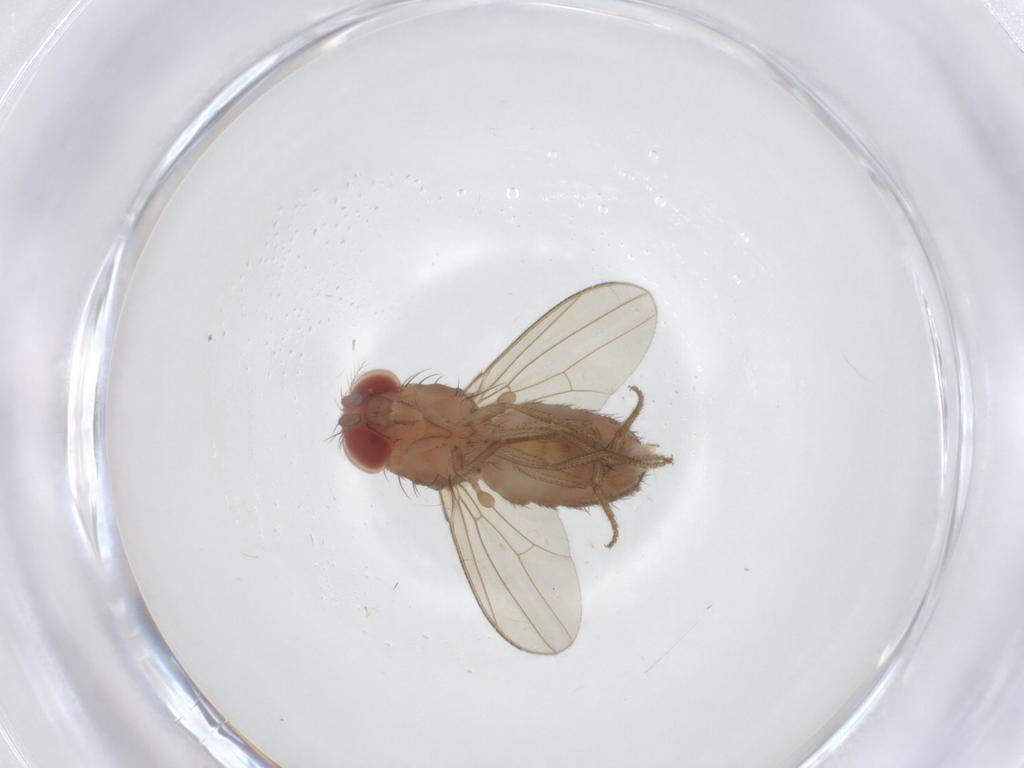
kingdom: Animalia
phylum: Arthropoda
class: Insecta
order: Diptera
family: Drosophilidae
